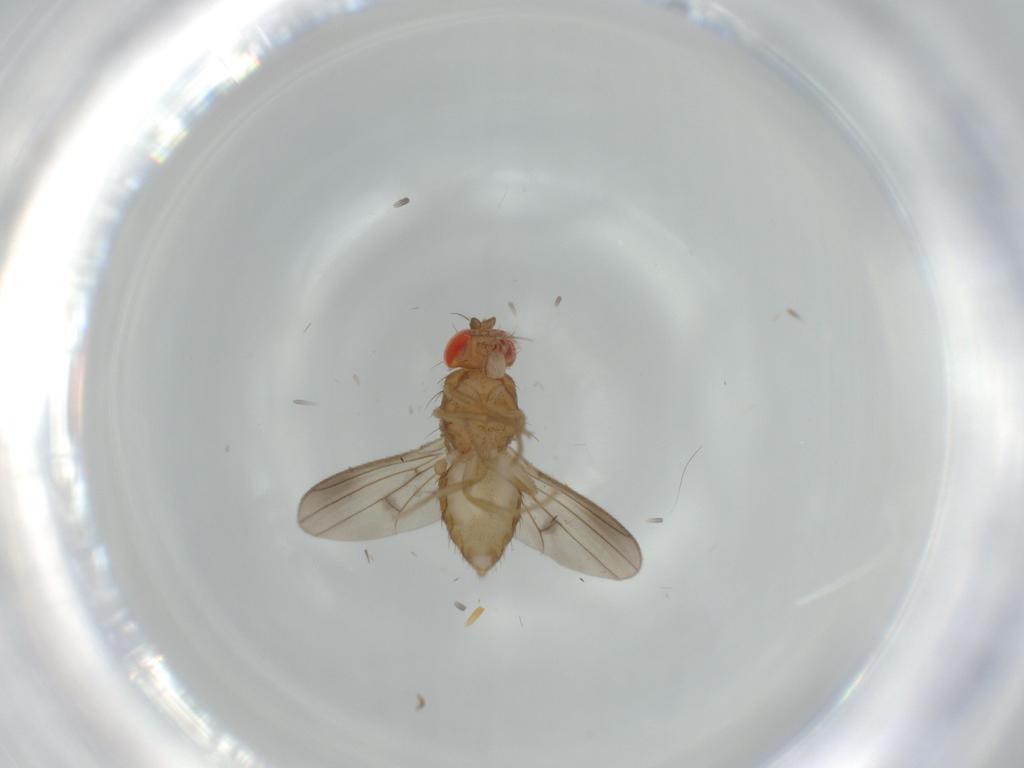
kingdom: Animalia
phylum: Arthropoda
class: Insecta
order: Diptera
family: Drosophilidae
